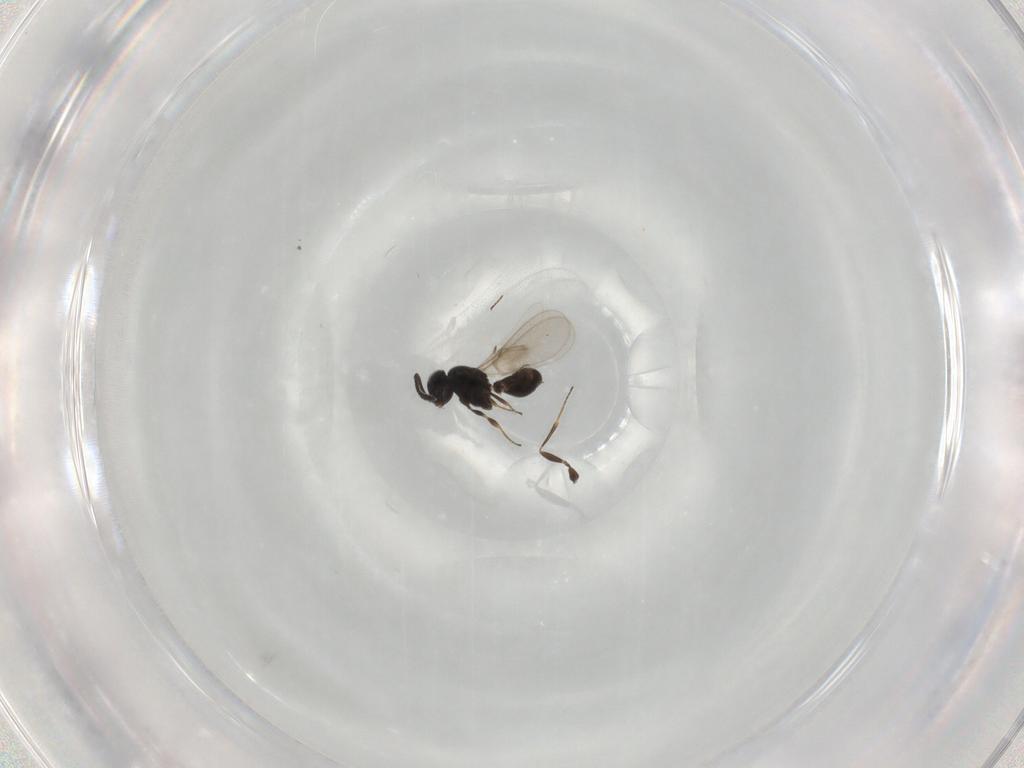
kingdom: Animalia
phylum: Arthropoda
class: Insecta
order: Hymenoptera
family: Scelionidae
